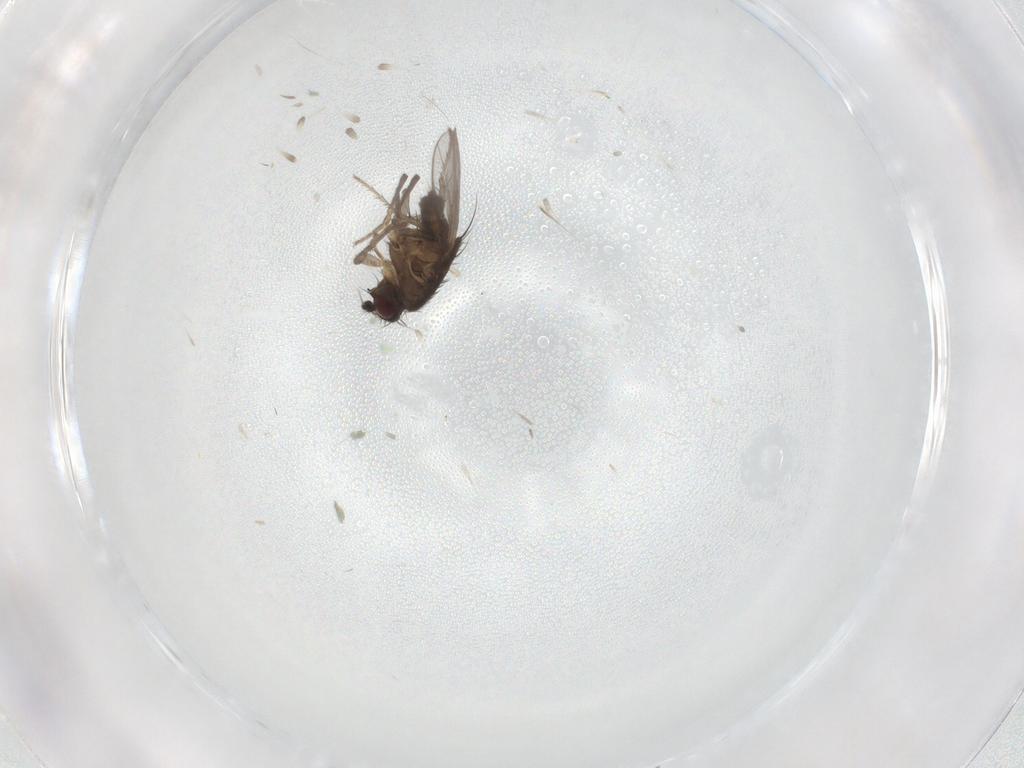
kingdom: Animalia
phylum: Arthropoda
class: Insecta
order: Diptera
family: Sphaeroceridae
